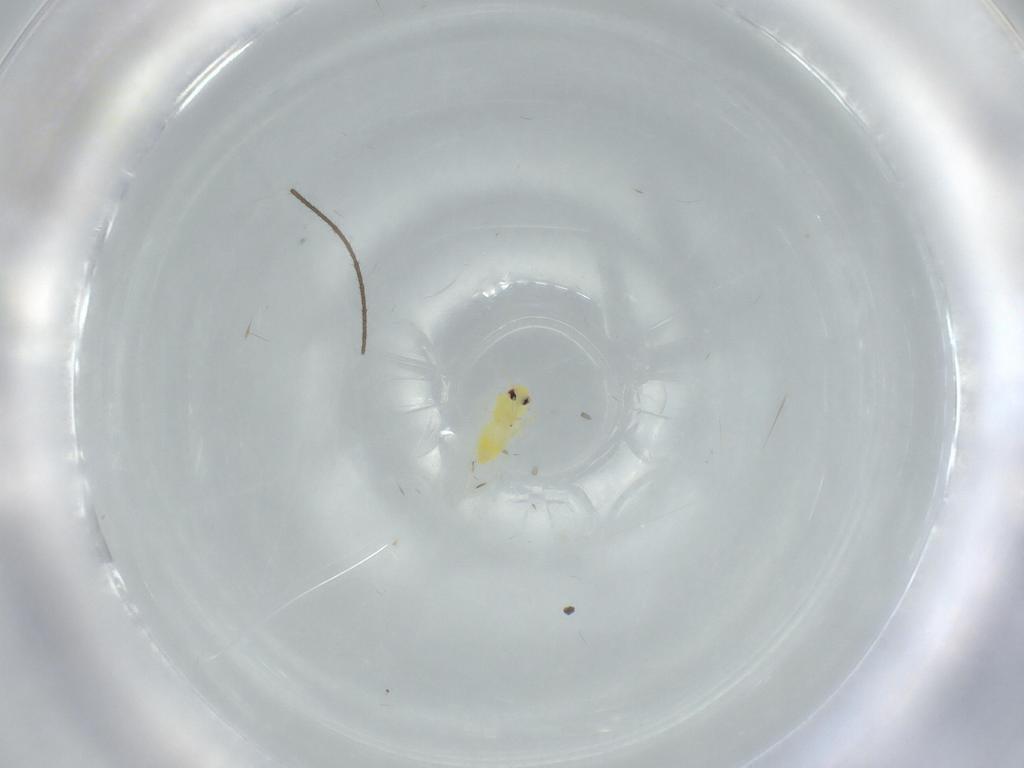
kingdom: Animalia
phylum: Arthropoda
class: Insecta
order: Hemiptera
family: Aleyrodidae
